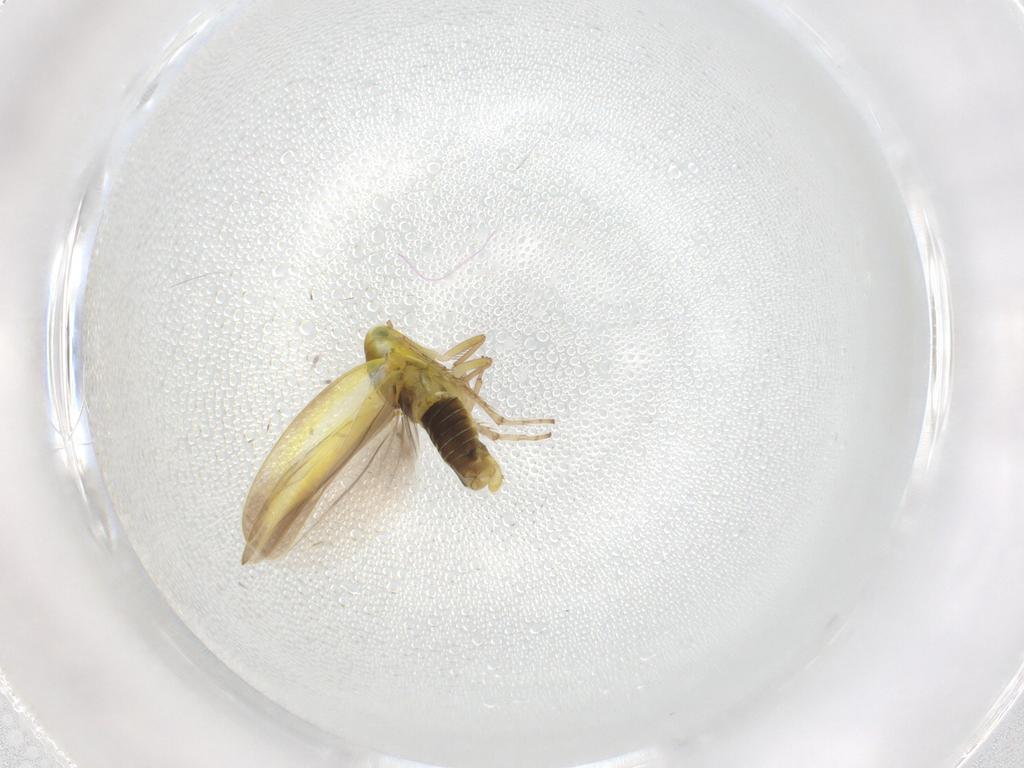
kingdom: Animalia
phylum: Arthropoda
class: Insecta
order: Hemiptera
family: Cicadellidae
